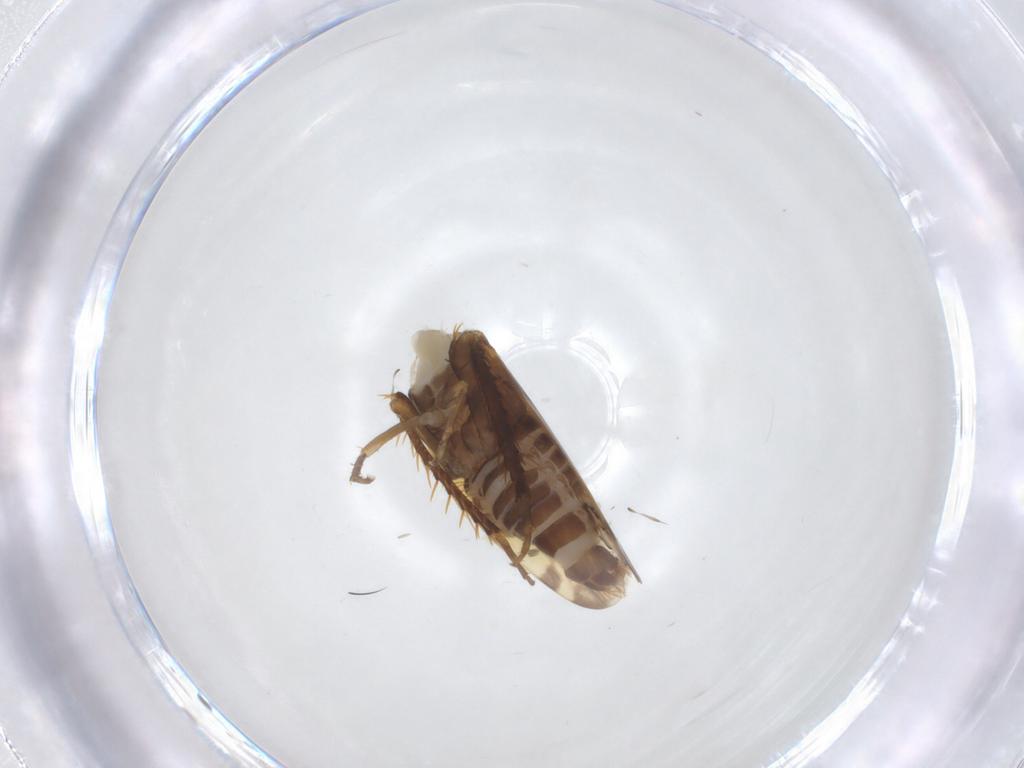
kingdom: Animalia
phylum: Arthropoda
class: Insecta
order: Hemiptera
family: Cicadellidae
